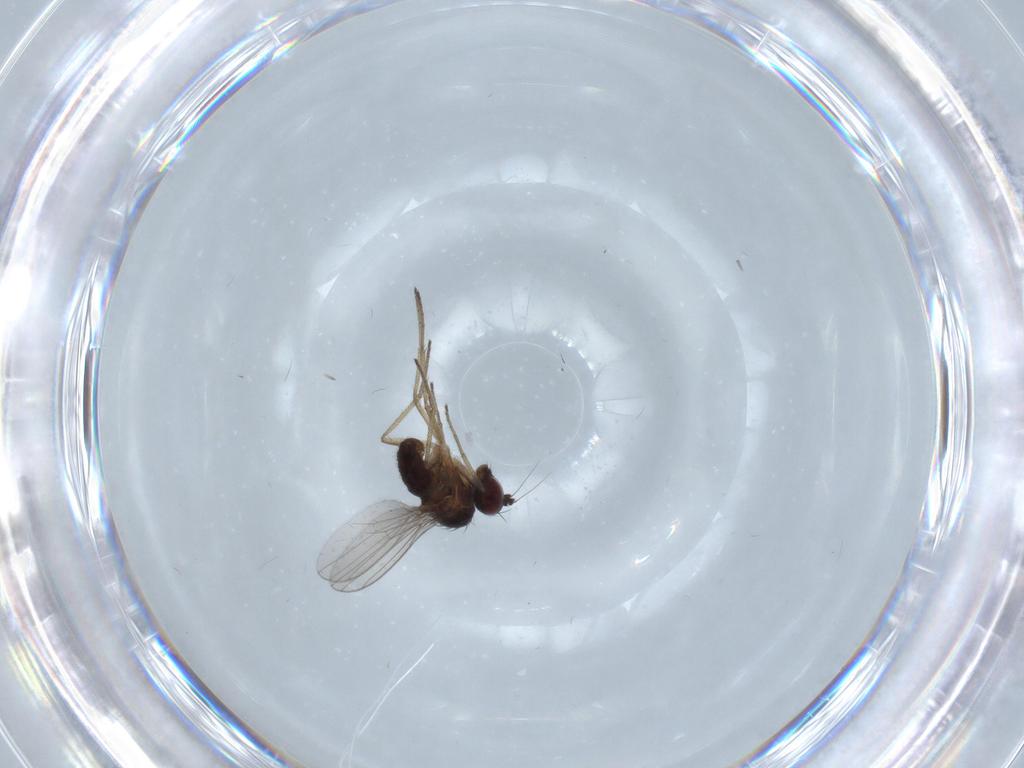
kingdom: Animalia
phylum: Arthropoda
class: Insecta
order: Diptera
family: Dolichopodidae
